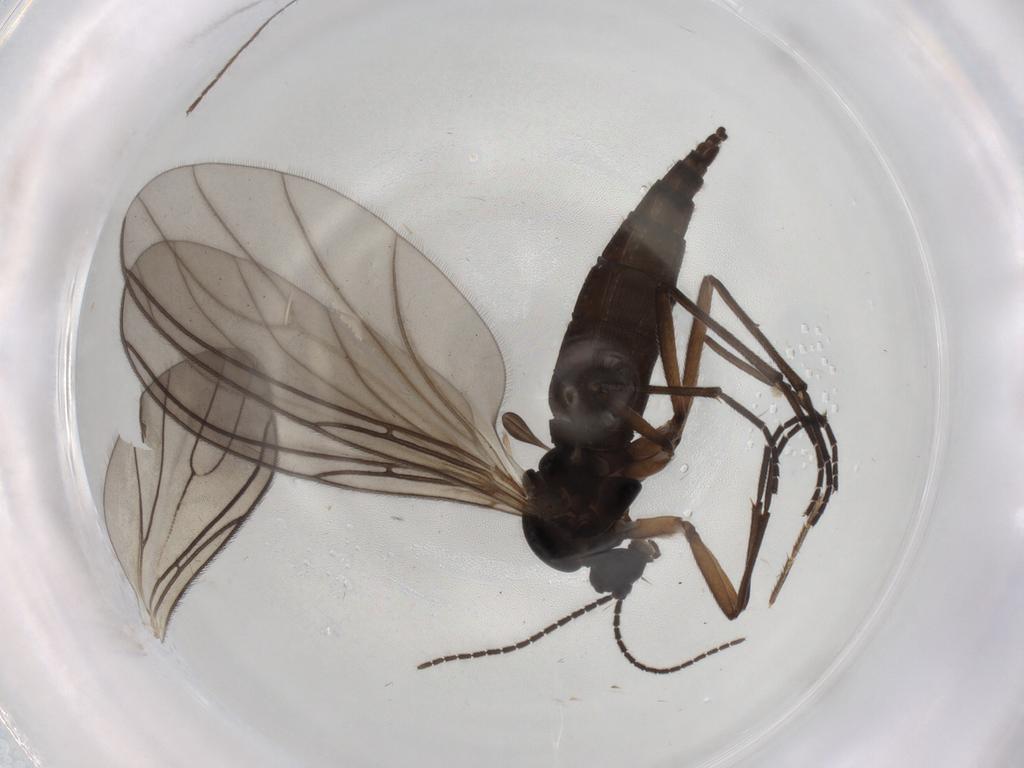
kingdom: Animalia
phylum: Arthropoda
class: Insecta
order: Diptera
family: Sciaridae
